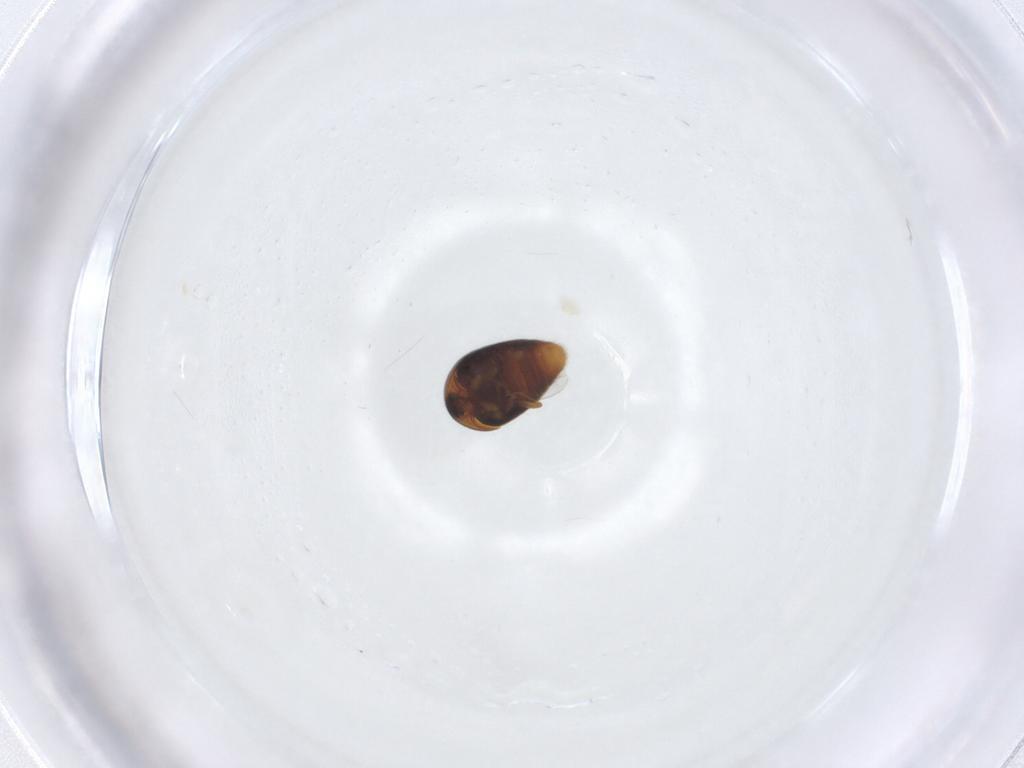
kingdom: Animalia
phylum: Arthropoda
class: Insecta
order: Coleoptera
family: Corylophidae
